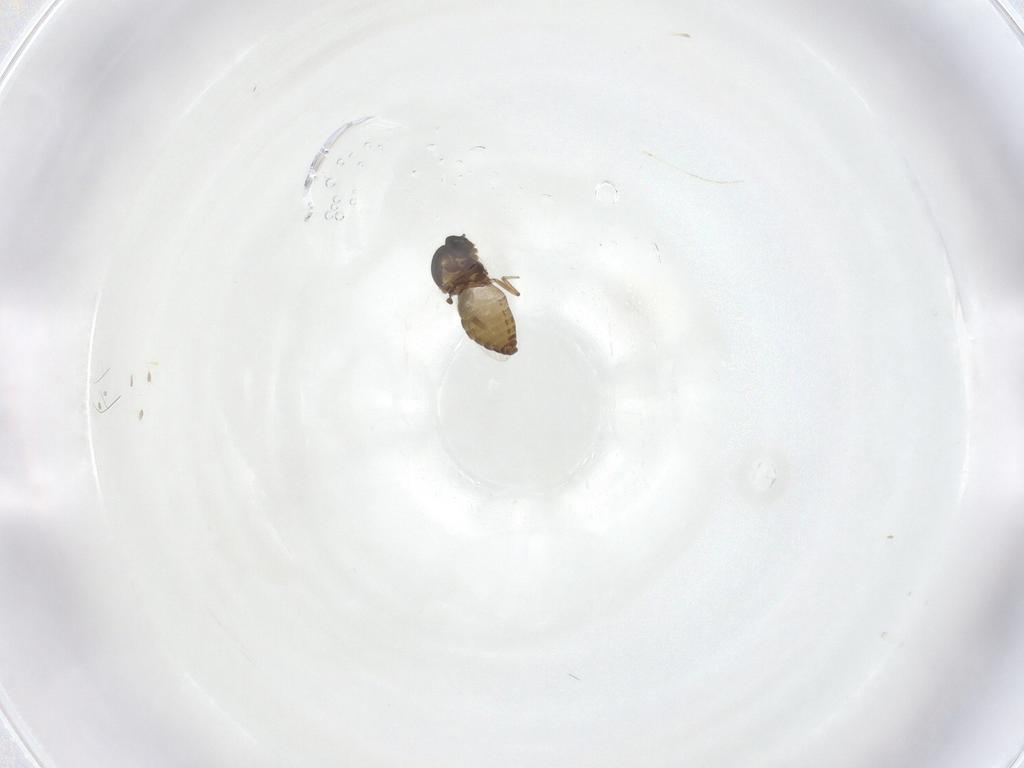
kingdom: Animalia
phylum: Arthropoda
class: Insecta
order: Diptera
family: Ceratopogonidae
